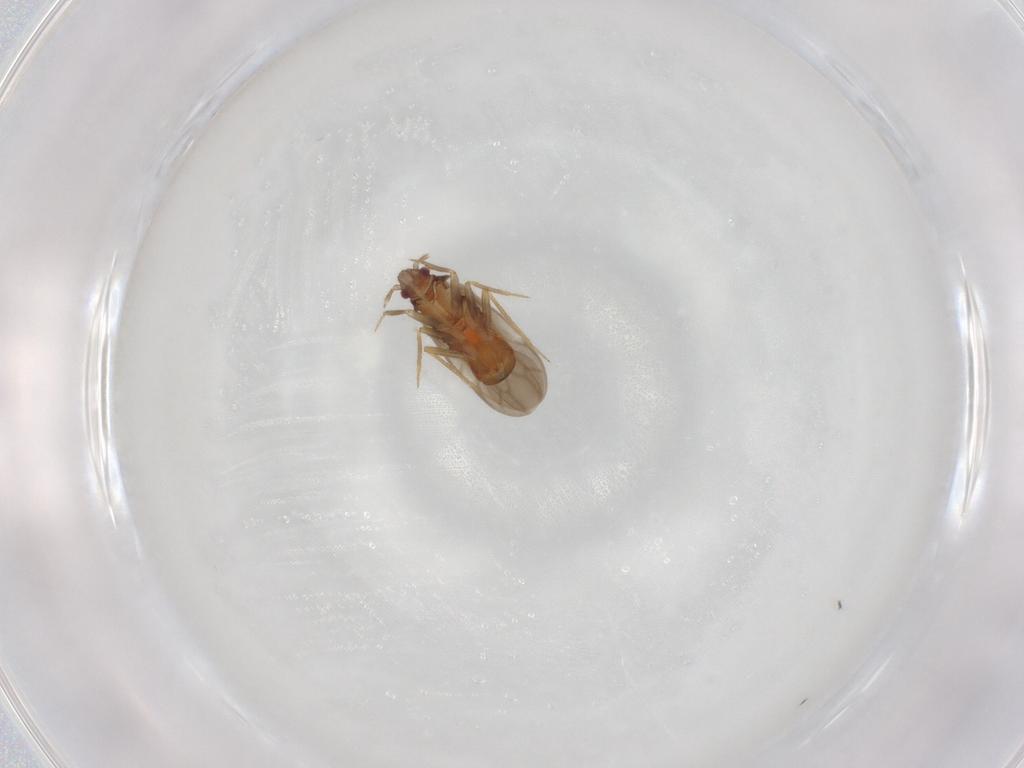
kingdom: Animalia
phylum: Arthropoda
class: Insecta
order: Hemiptera
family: Ceratocombidae
